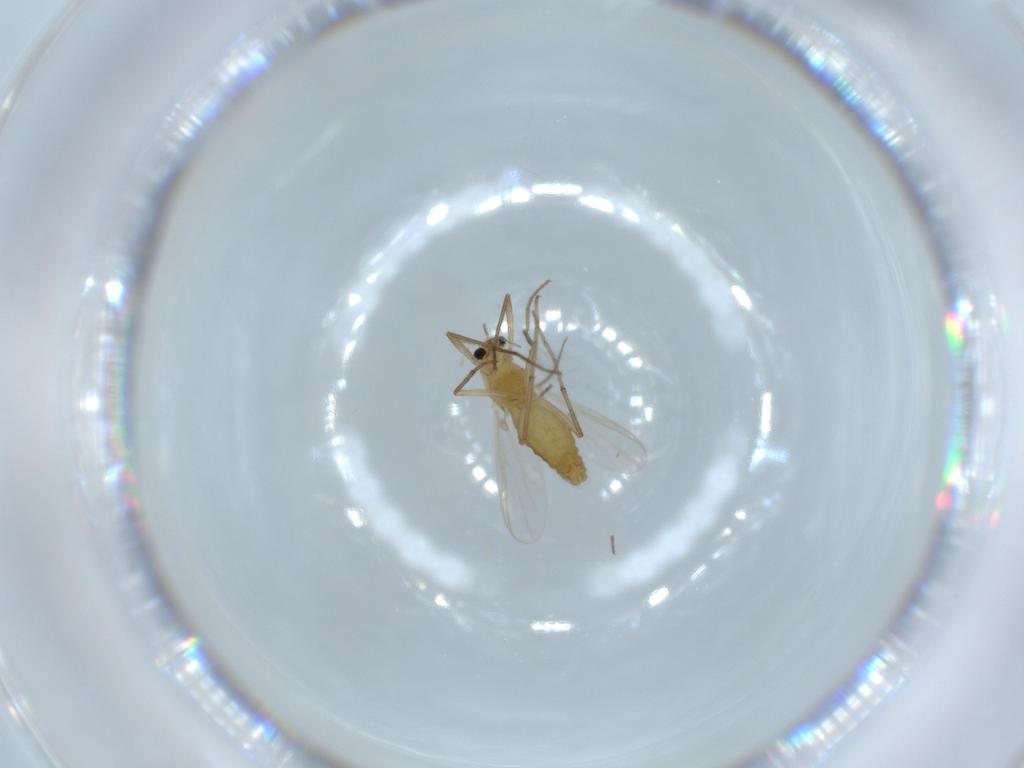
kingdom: Animalia
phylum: Arthropoda
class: Insecta
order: Diptera
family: Chironomidae
